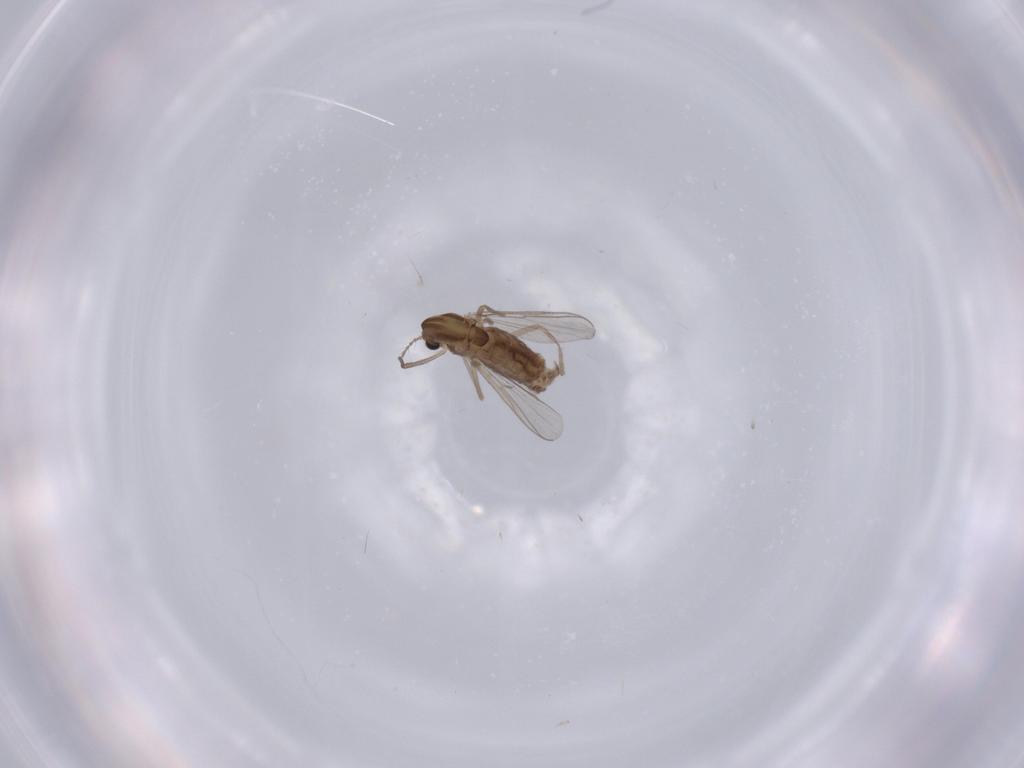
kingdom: Animalia
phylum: Arthropoda
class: Insecta
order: Diptera
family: Chironomidae
